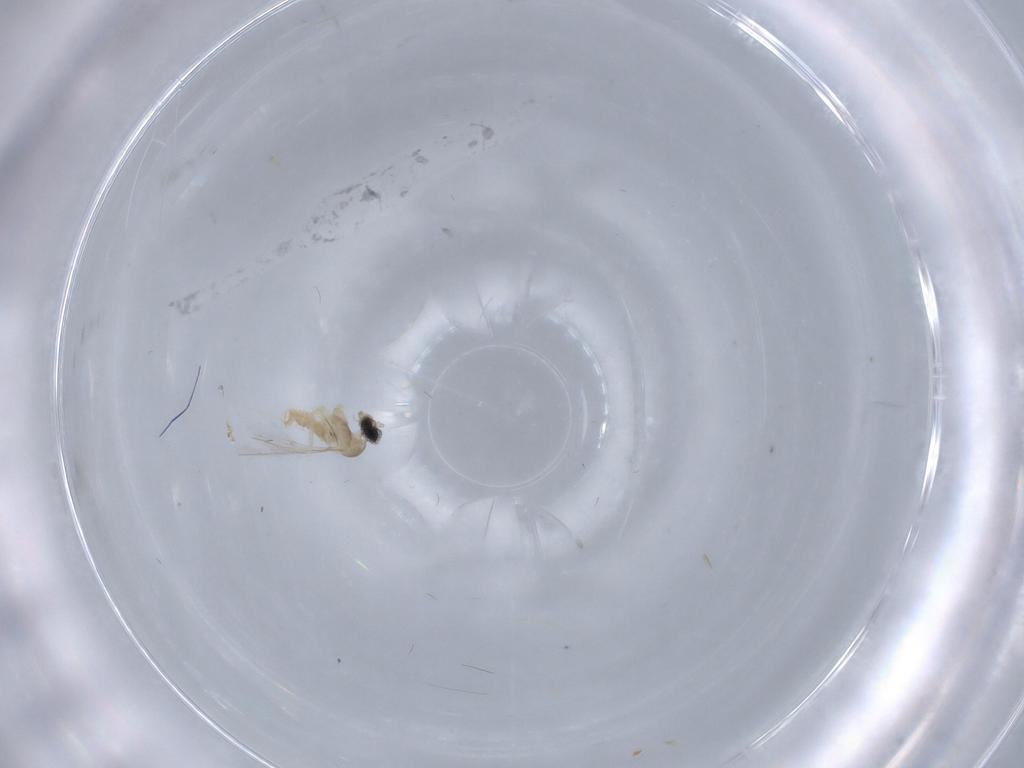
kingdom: Animalia
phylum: Arthropoda
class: Insecta
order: Diptera
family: Cecidomyiidae
